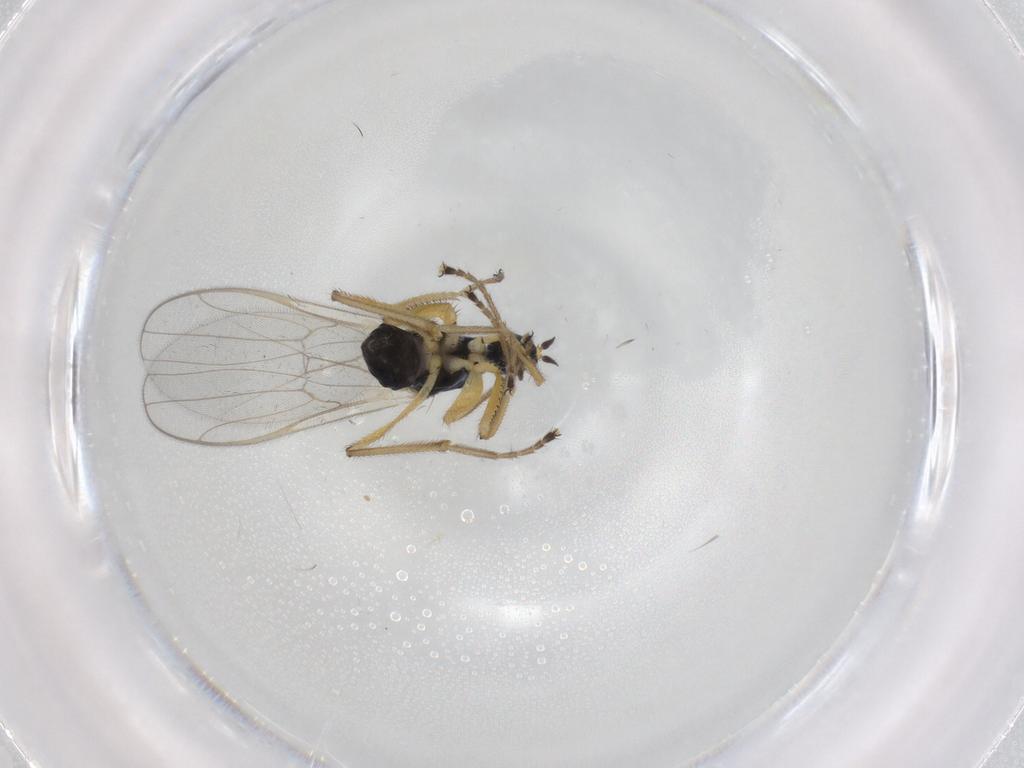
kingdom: Animalia
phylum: Arthropoda
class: Insecta
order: Diptera
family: Hybotidae
